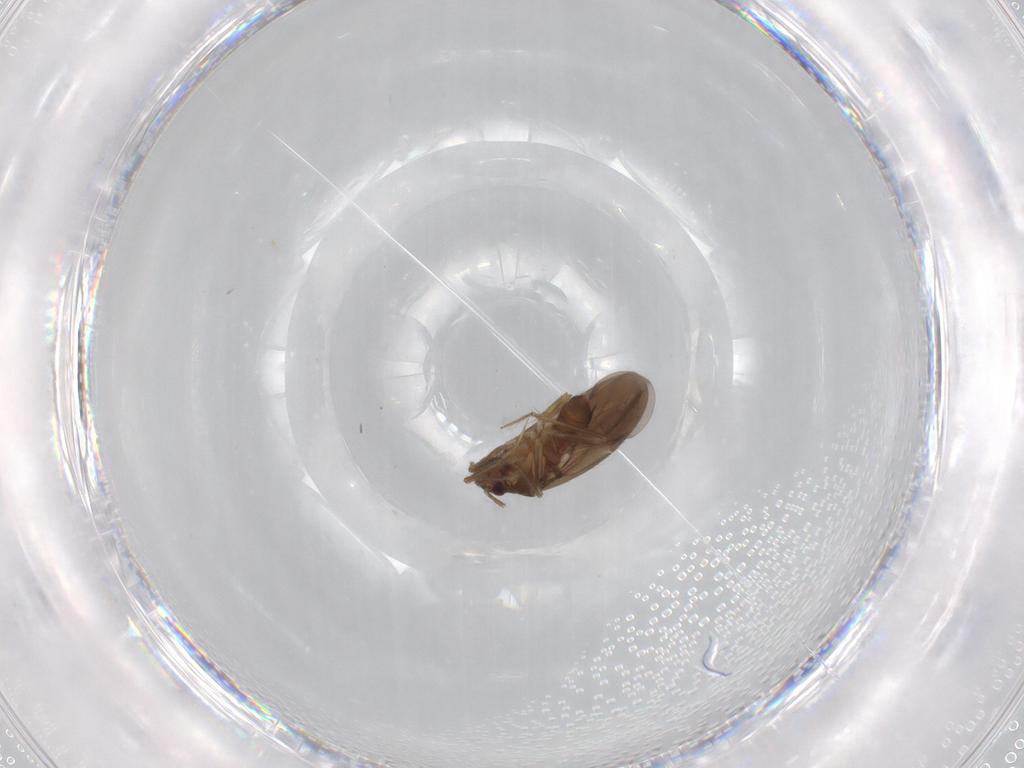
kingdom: Animalia
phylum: Arthropoda
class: Insecta
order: Hemiptera
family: Ceratocombidae
